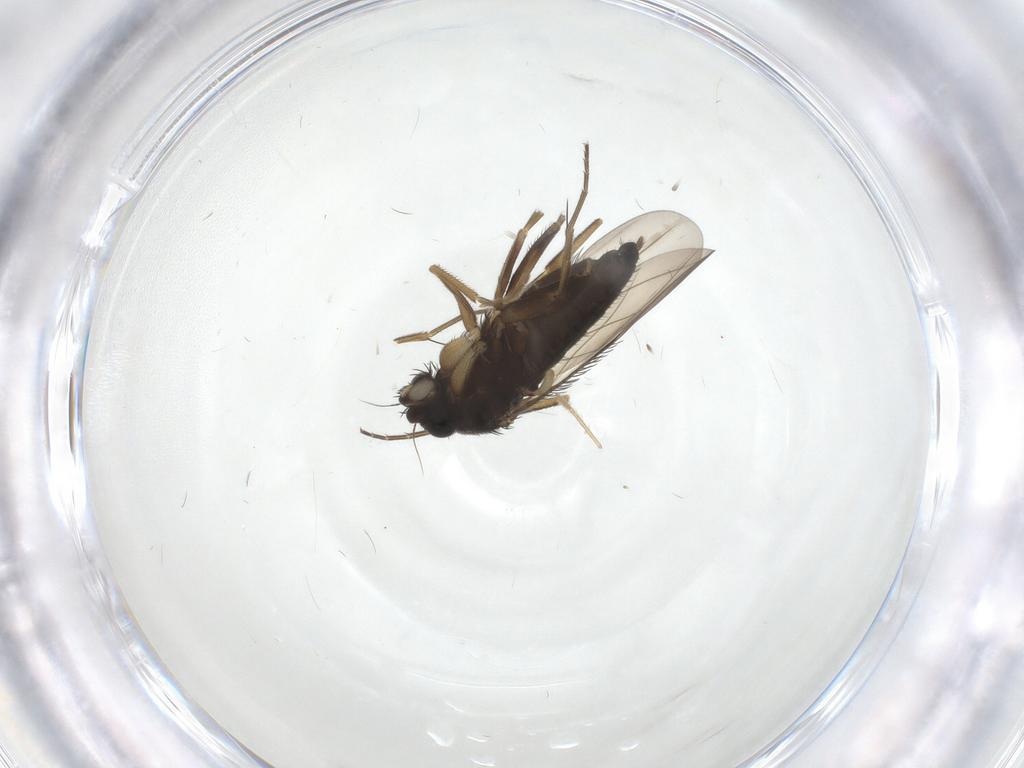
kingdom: Animalia
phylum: Arthropoda
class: Insecta
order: Diptera
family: Phoridae
